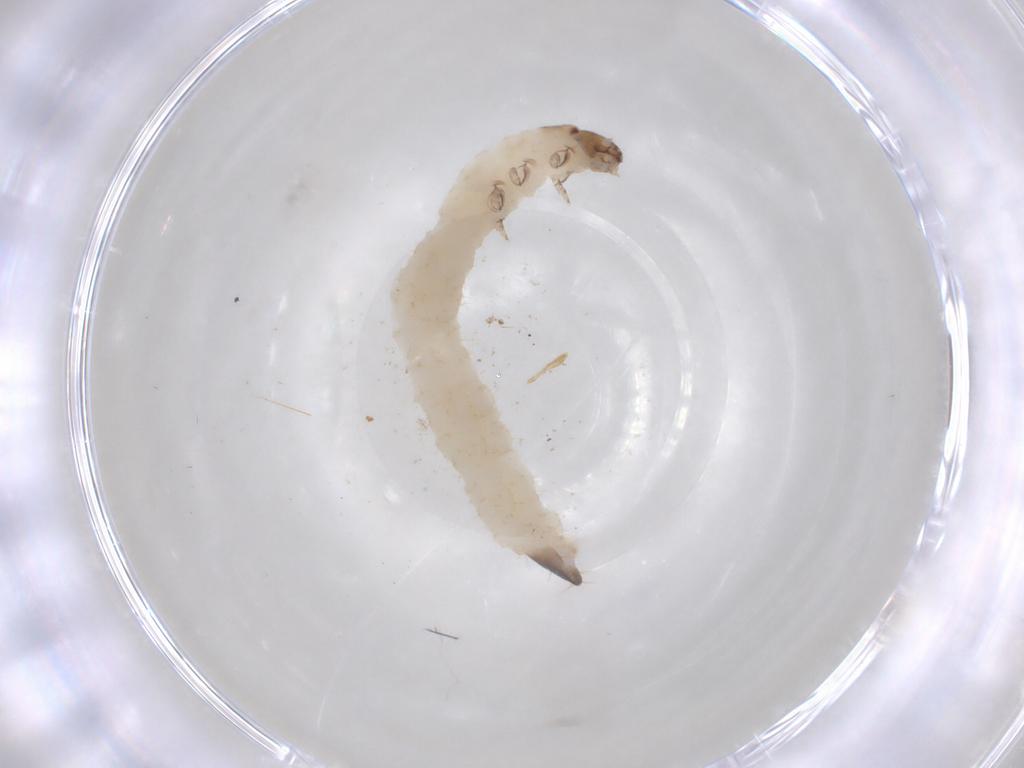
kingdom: Animalia
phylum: Arthropoda
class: Insecta
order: Coleoptera
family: Chrysomelidae
